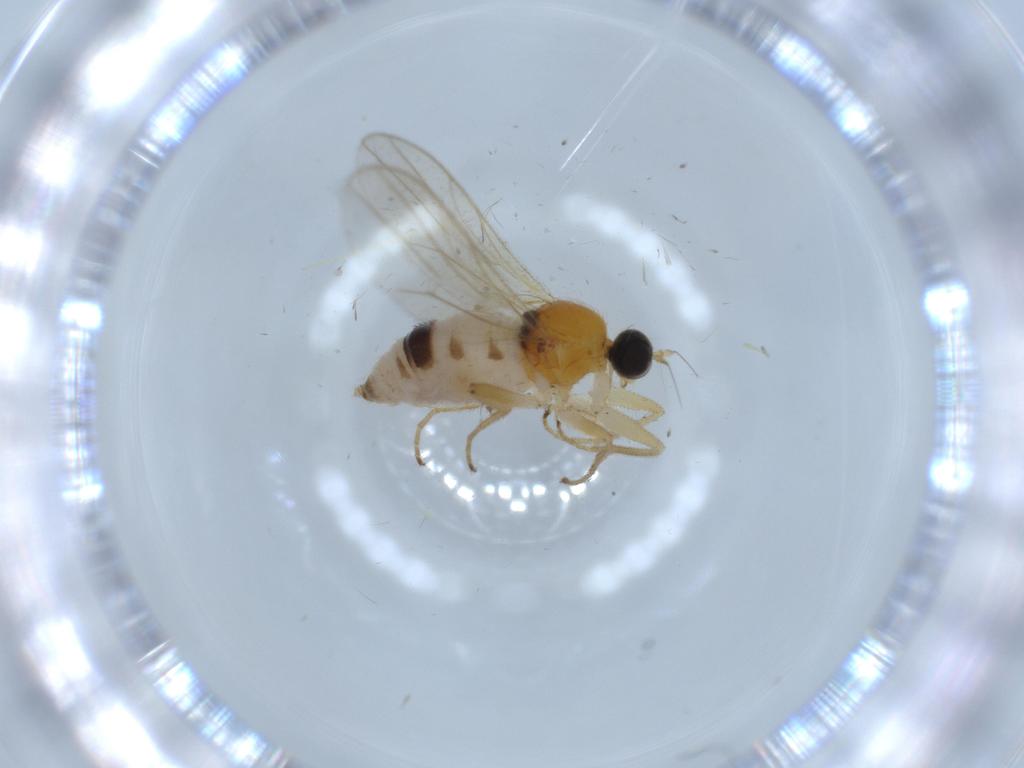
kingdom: Animalia
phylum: Arthropoda
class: Insecta
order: Diptera
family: Hybotidae
